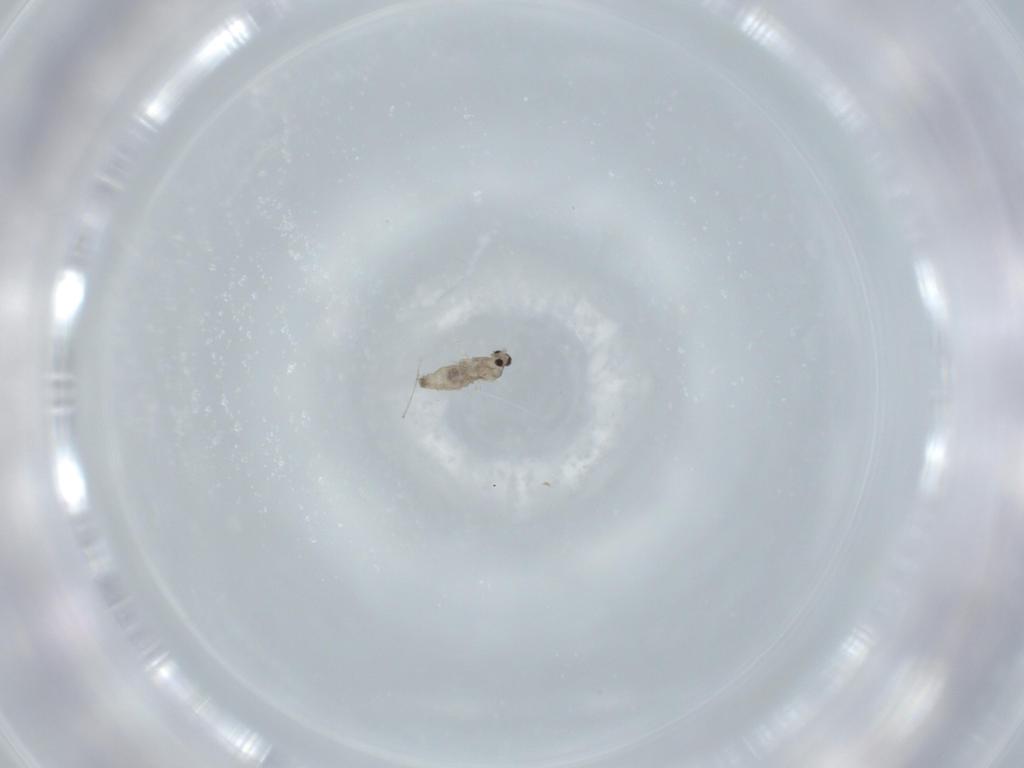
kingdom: Animalia
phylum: Arthropoda
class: Insecta
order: Diptera
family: Cecidomyiidae
